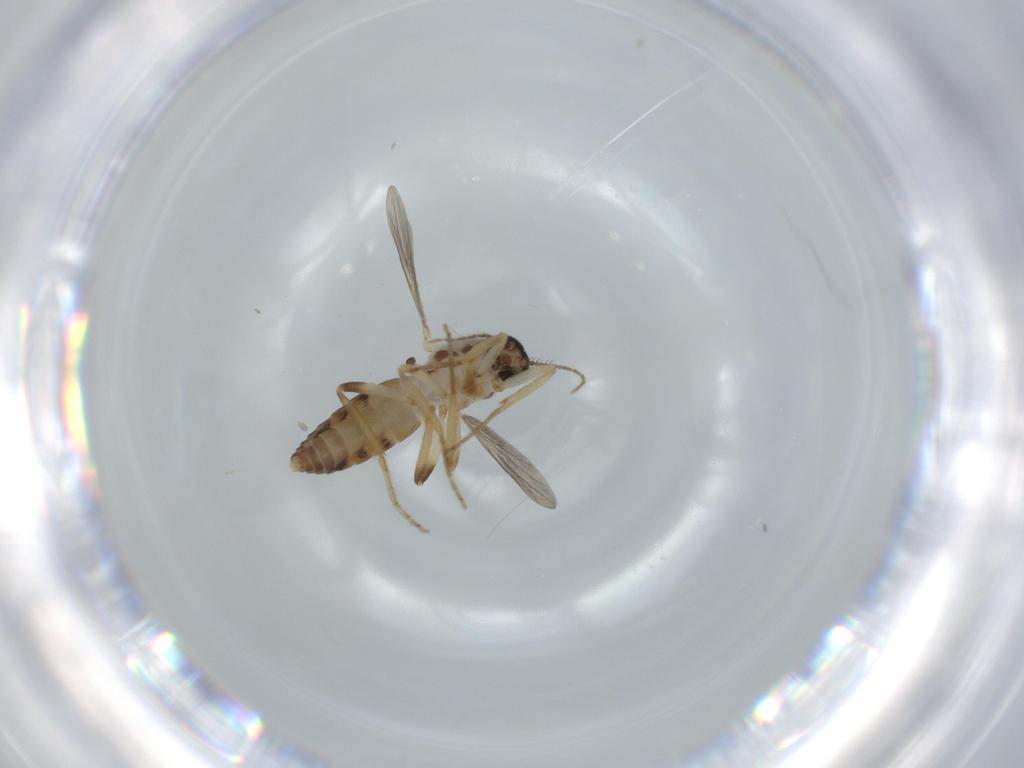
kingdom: Animalia
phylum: Arthropoda
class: Insecta
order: Diptera
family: Ceratopogonidae
